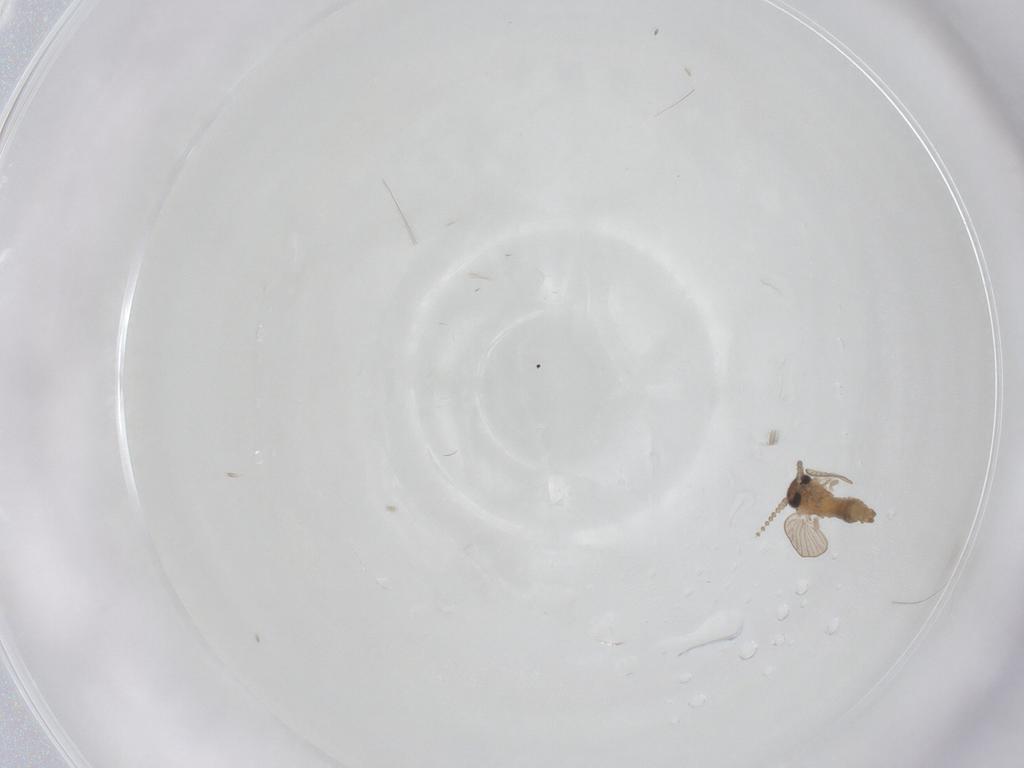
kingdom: Animalia
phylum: Arthropoda
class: Insecta
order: Diptera
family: Psychodidae
